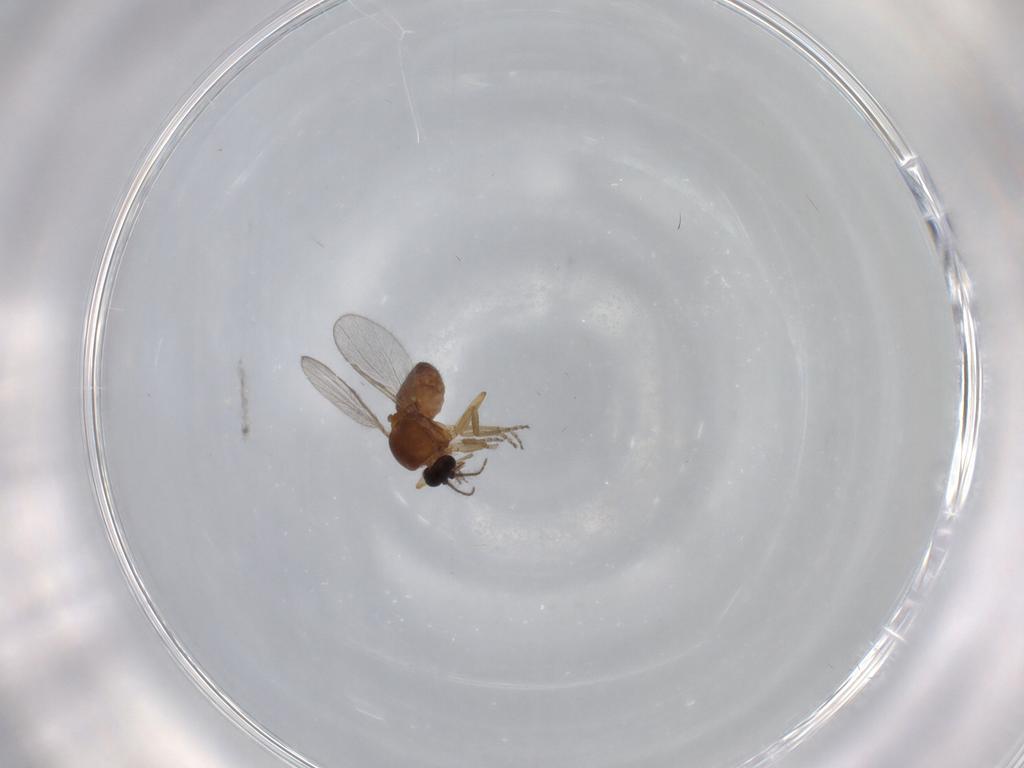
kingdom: Animalia
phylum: Arthropoda
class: Insecta
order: Diptera
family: Ceratopogonidae
